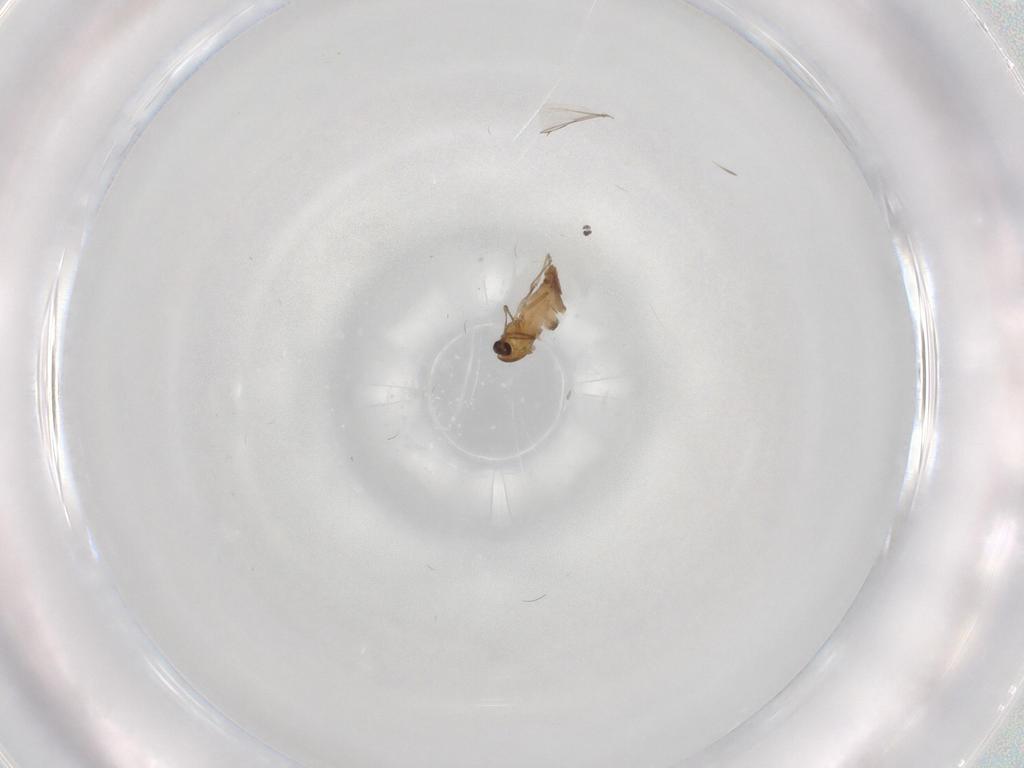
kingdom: Animalia
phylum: Arthropoda
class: Insecta
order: Diptera
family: Chironomidae
